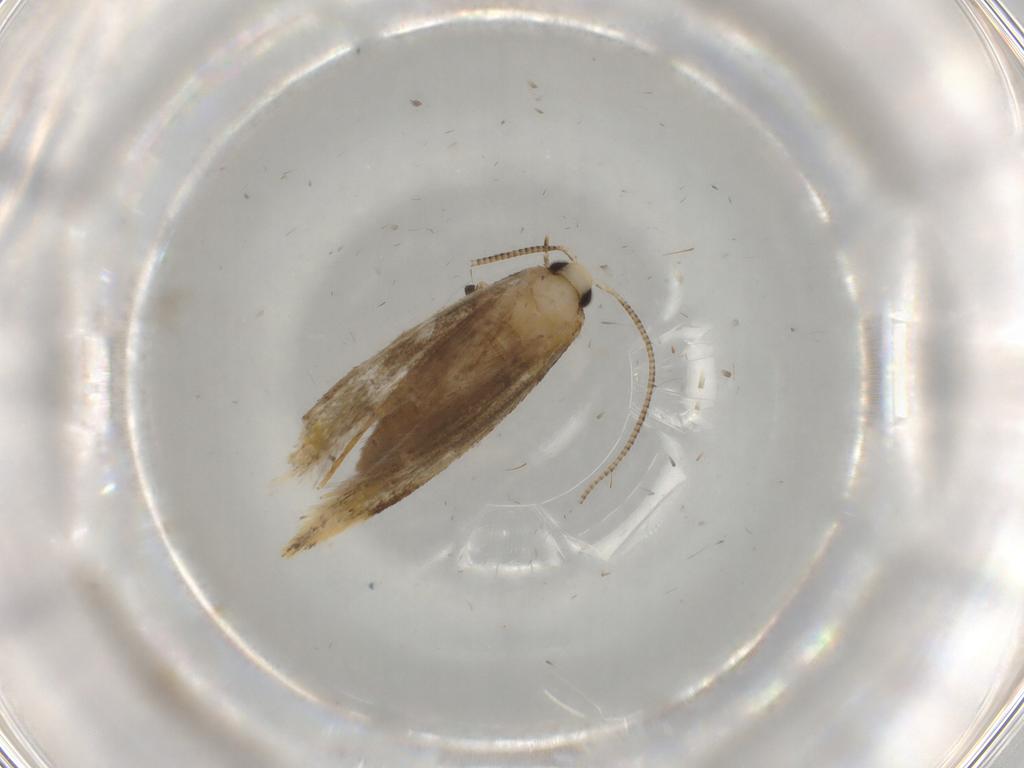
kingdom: Animalia
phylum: Arthropoda
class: Insecta
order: Lepidoptera
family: Tineidae
